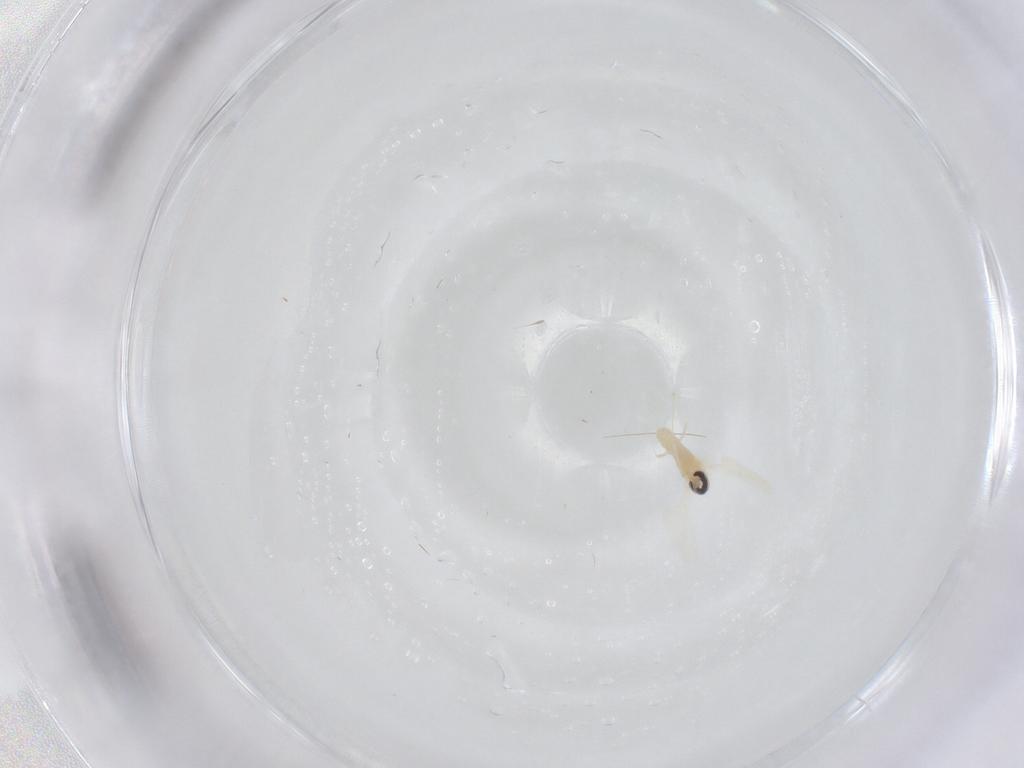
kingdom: Animalia
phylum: Arthropoda
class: Insecta
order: Diptera
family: Cecidomyiidae
